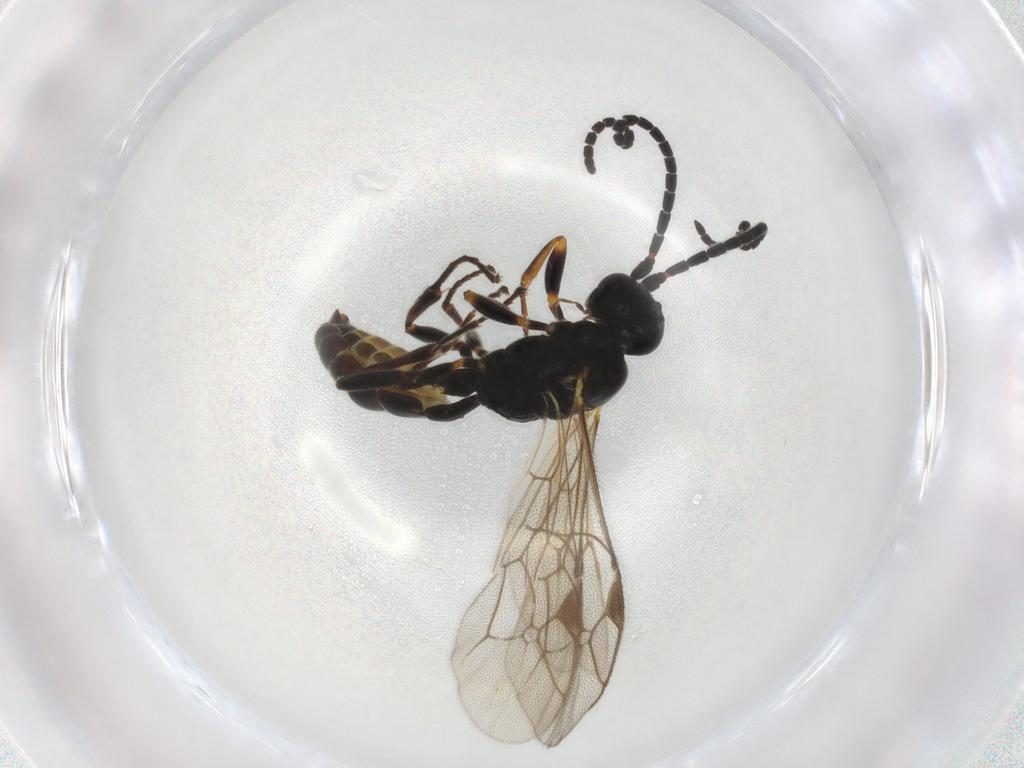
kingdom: Animalia
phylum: Arthropoda
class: Insecta
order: Hymenoptera
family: Ichneumonidae
